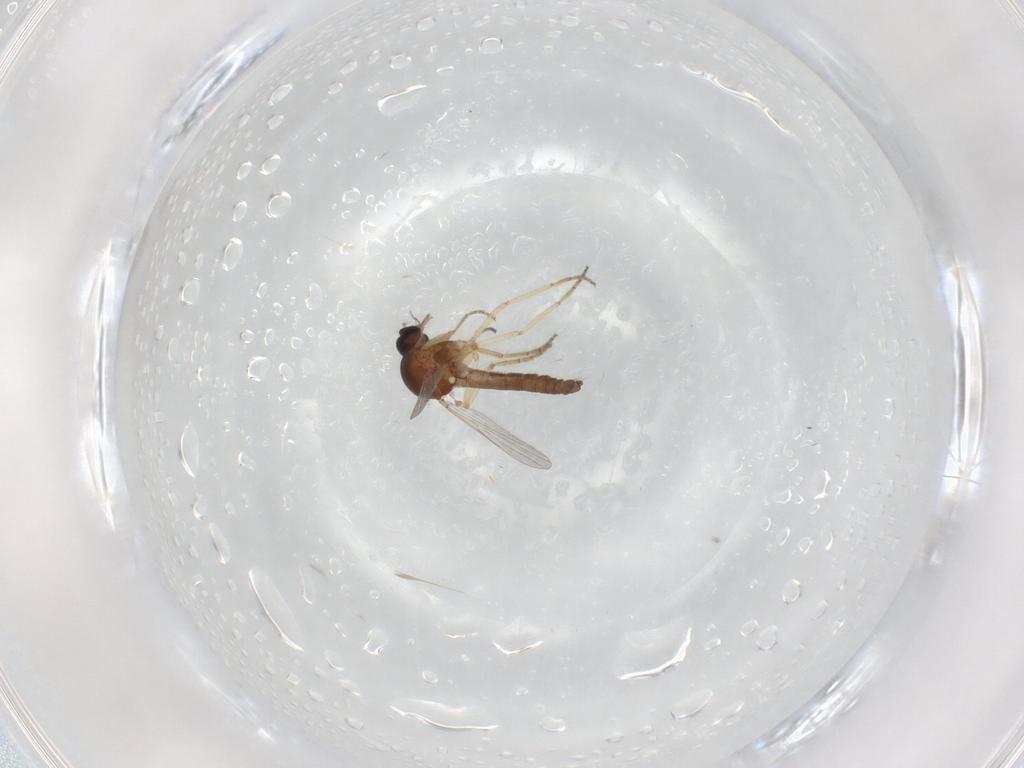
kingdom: Animalia
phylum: Arthropoda
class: Insecta
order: Diptera
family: Ceratopogonidae
